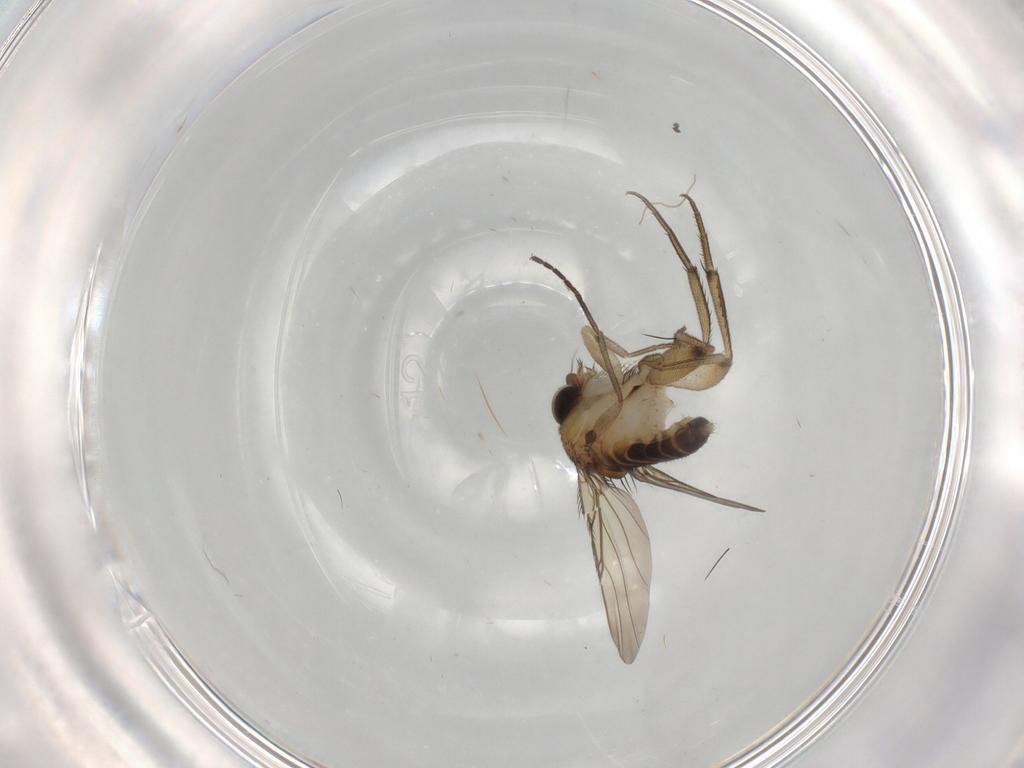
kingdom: Animalia
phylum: Arthropoda
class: Insecta
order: Diptera
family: Phoridae
